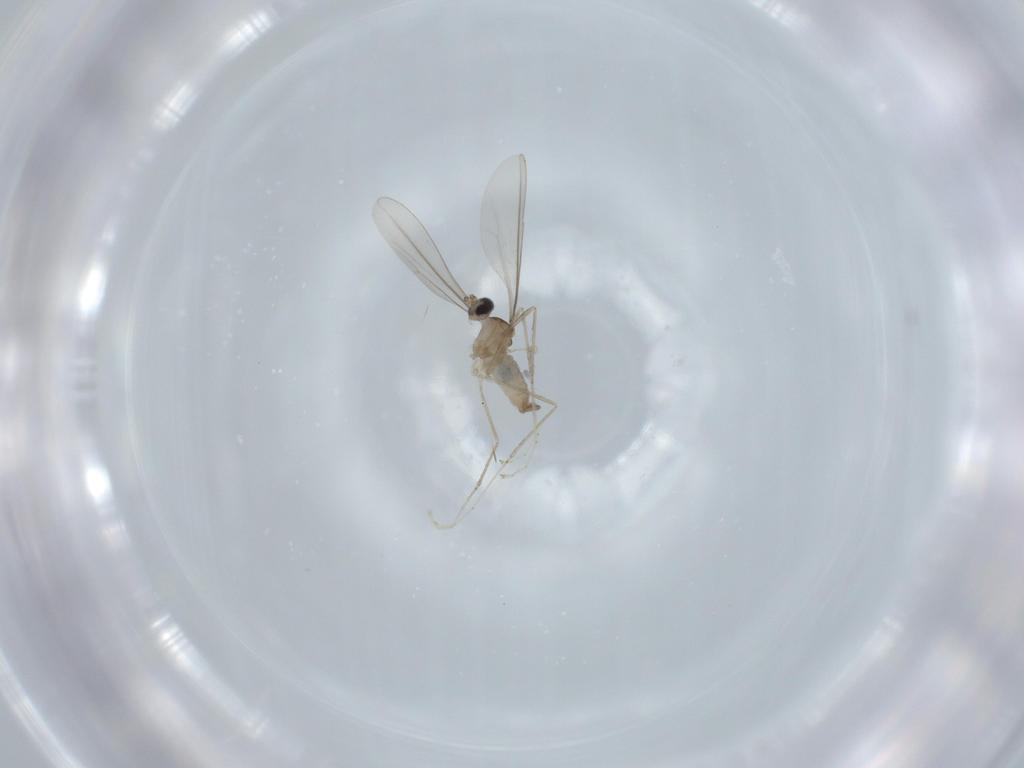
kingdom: Animalia
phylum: Arthropoda
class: Insecta
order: Diptera
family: Cecidomyiidae
